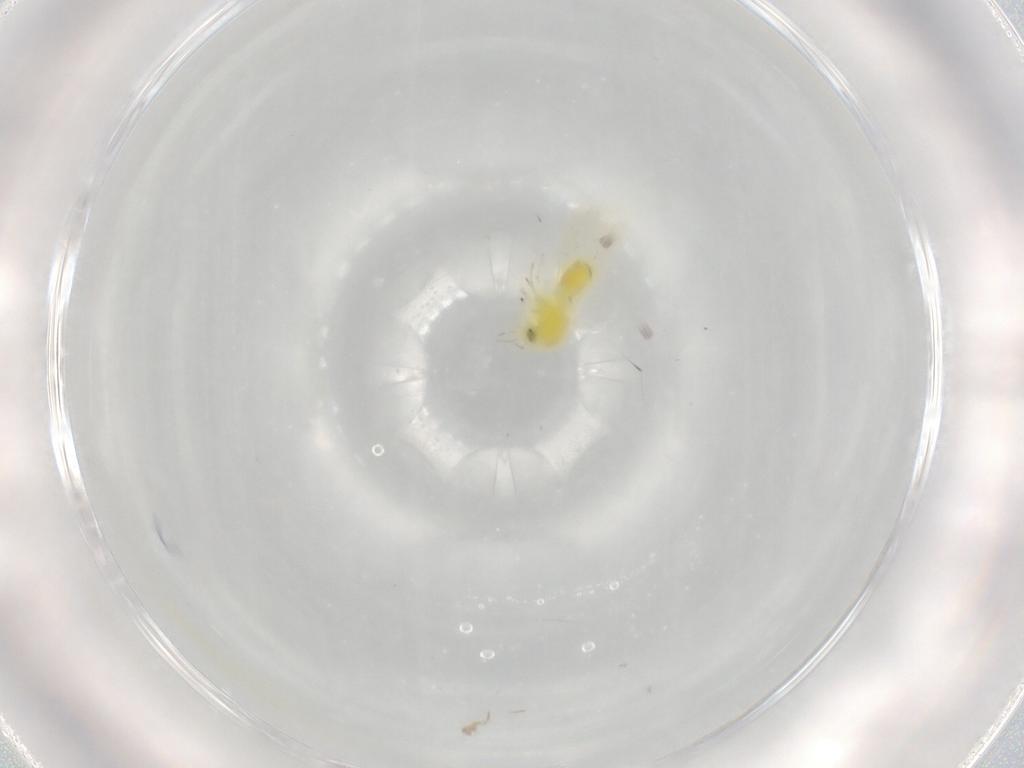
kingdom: Animalia
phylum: Arthropoda
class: Insecta
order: Hemiptera
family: Aleyrodidae
